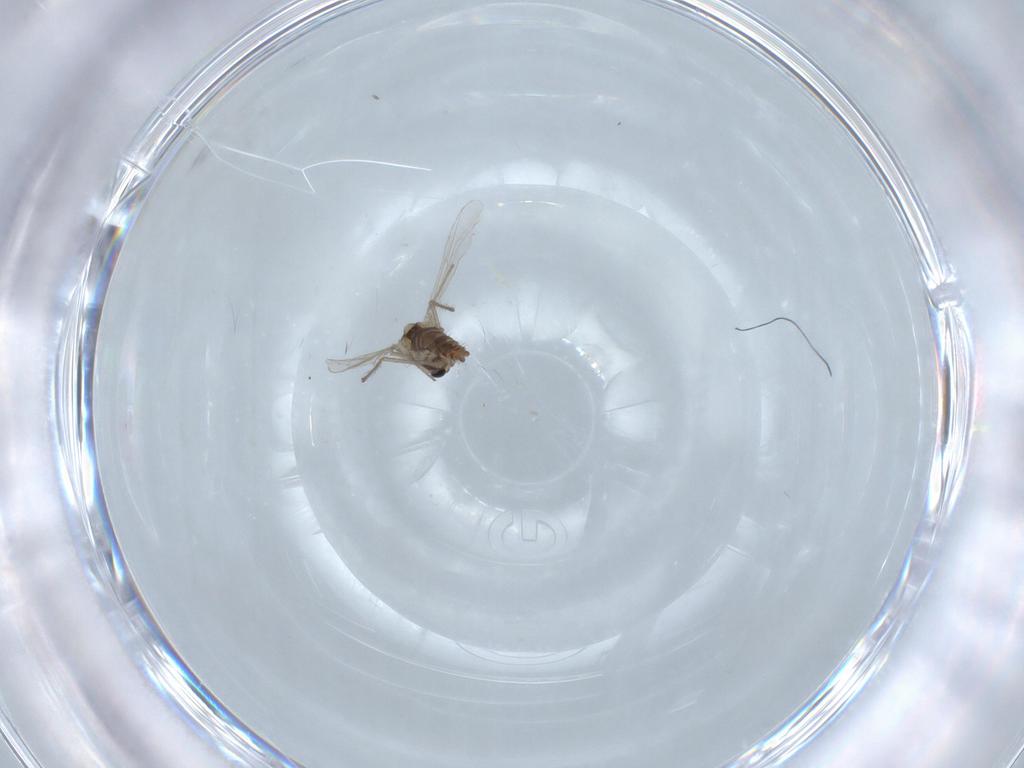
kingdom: Animalia
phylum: Arthropoda
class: Insecta
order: Diptera
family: Chironomidae
